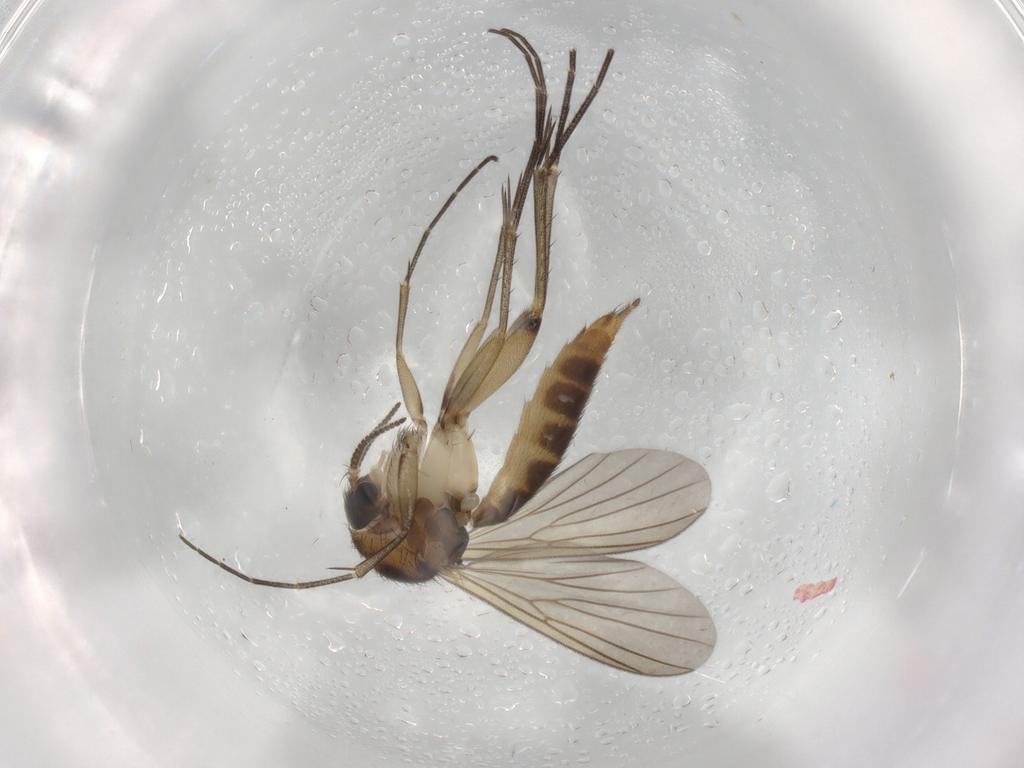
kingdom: Animalia
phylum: Arthropoda
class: Insecta
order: Diptera
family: Mycetophilidae
